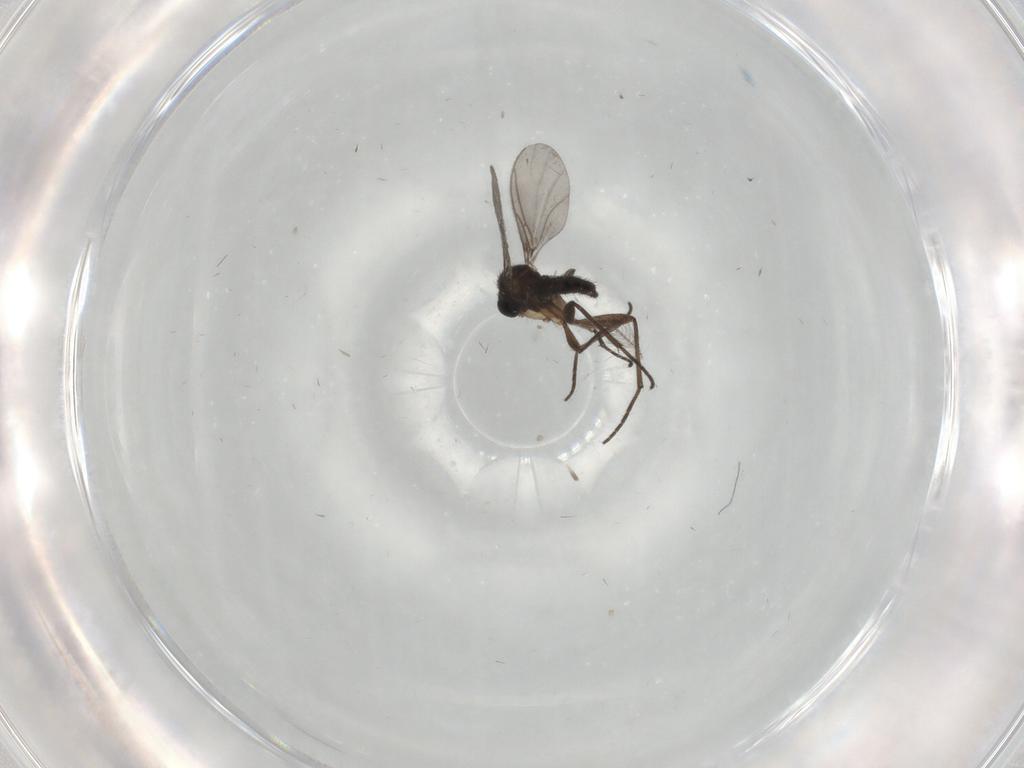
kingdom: Animalia
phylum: Arthropoda
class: Insecta
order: Diptera
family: Sciaridae
